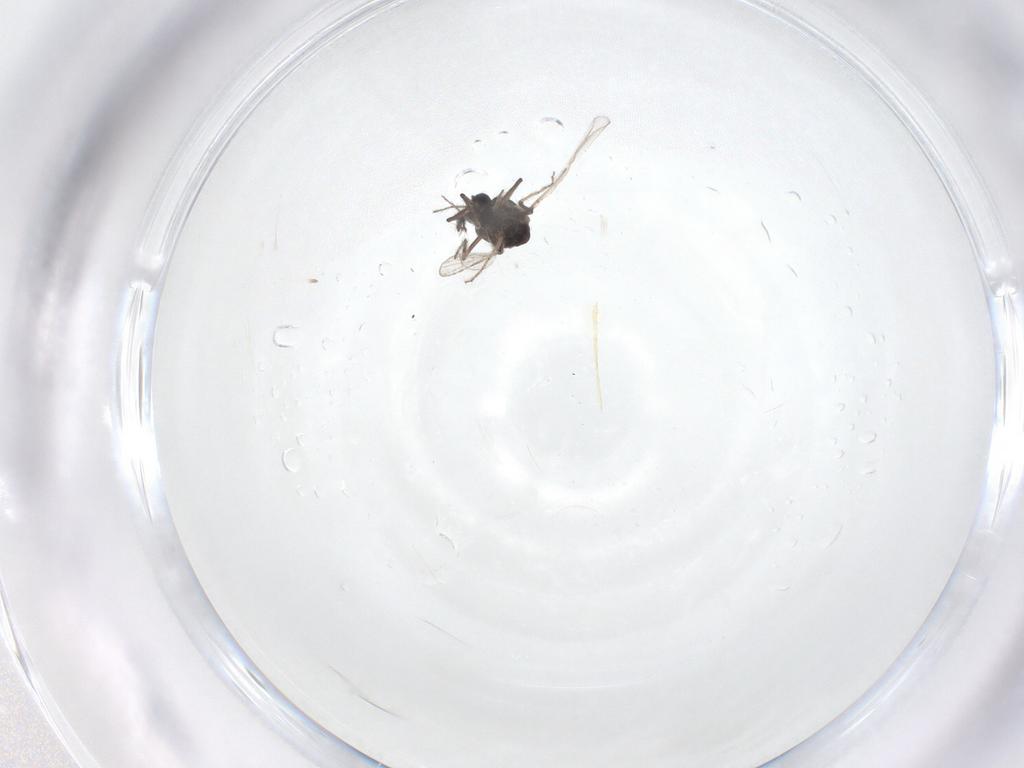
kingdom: Animalia
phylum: Arthropoda
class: Insecta
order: Diptera
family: Ceratopogonidae
